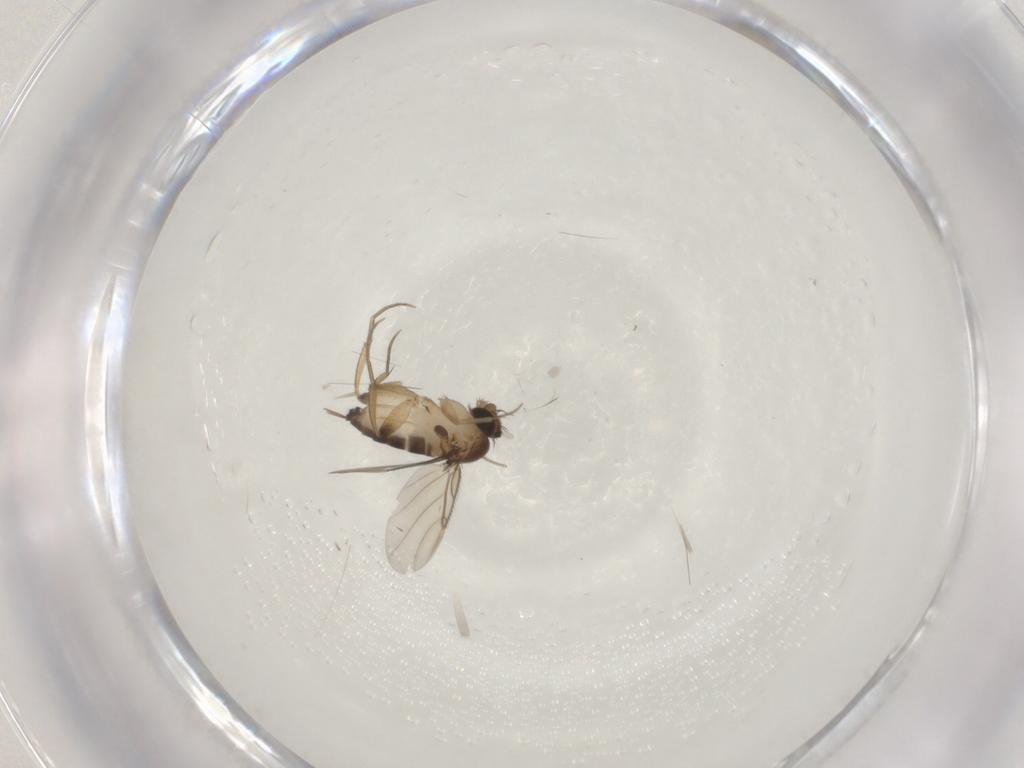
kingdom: Animalia
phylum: Arthropoda
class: Insecta
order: Diptera
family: Phoridae
